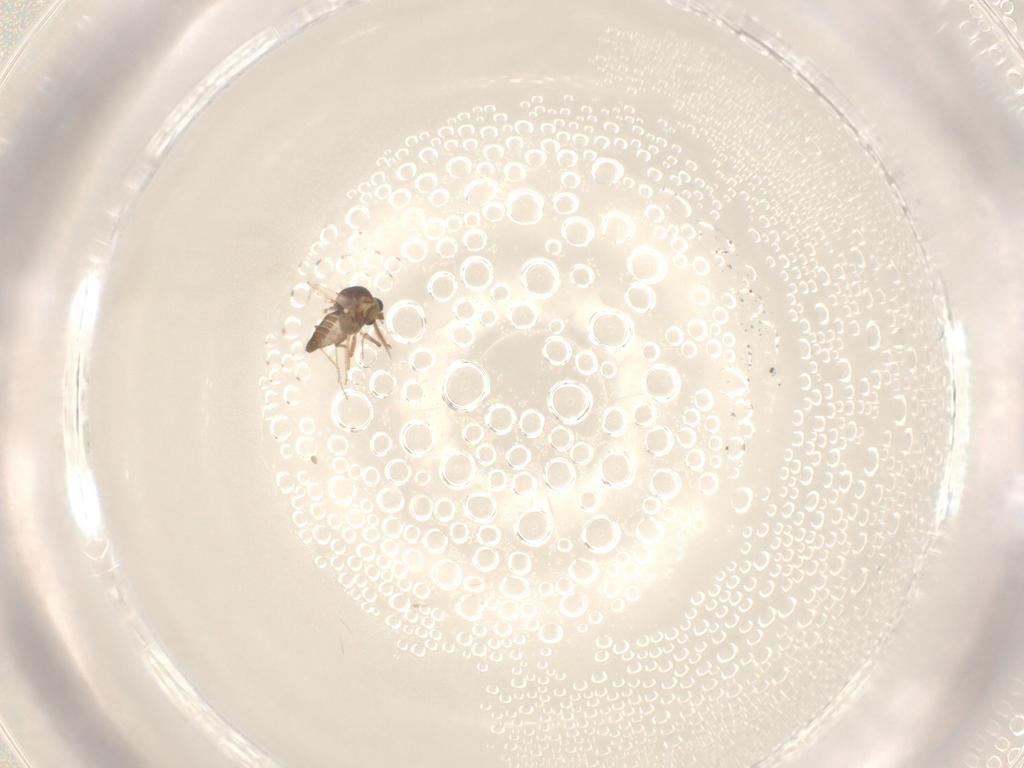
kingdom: Animalia
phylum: Arthropoda
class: Insecta
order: Diptera
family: Ceratopogonidae
